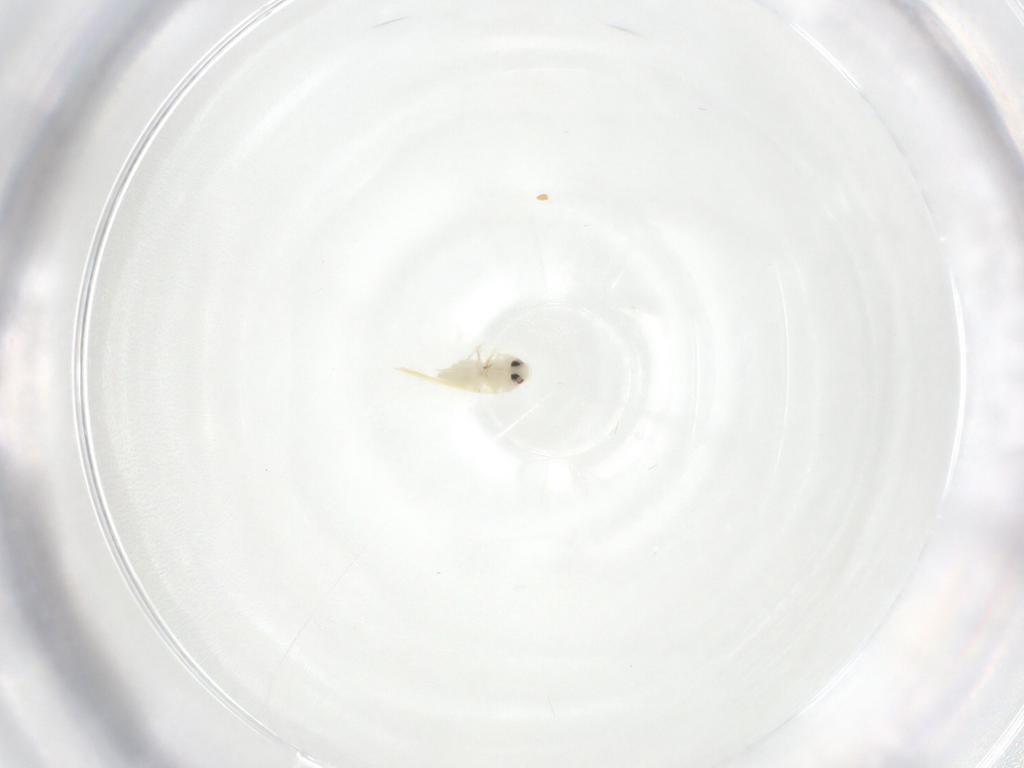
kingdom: Animalia
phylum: Arthropoda
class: Insecta
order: Hemiptera
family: Aleyrodidae
